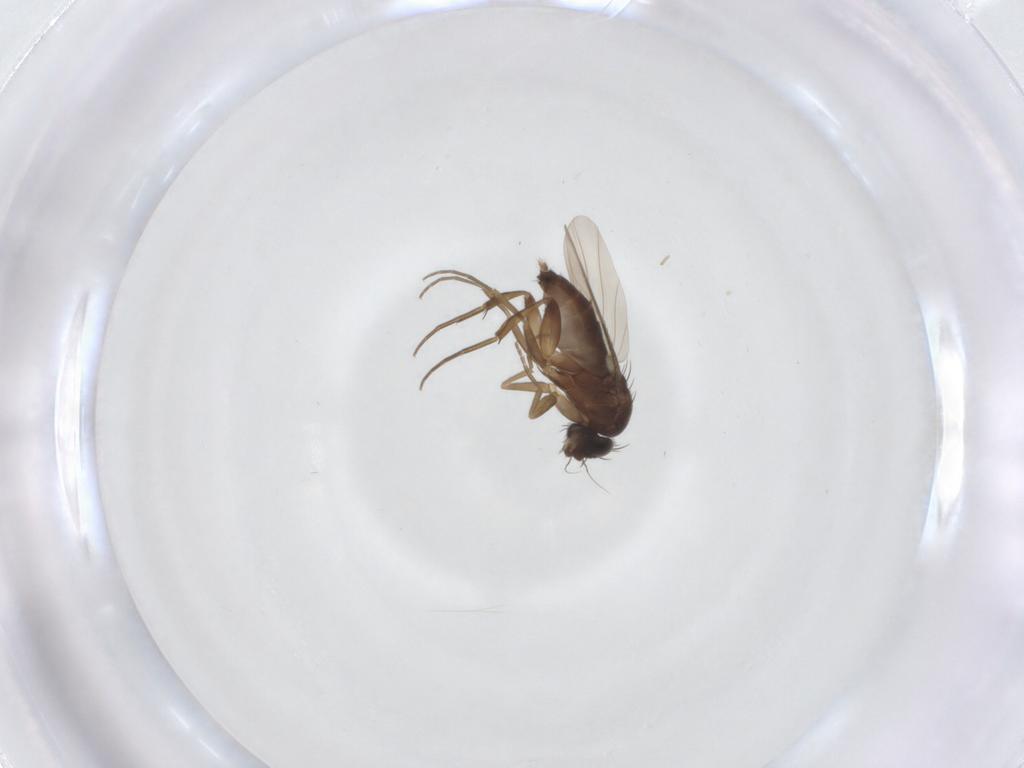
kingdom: Animalia
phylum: Arthropoda
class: Insecta
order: Diptera
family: Phoridae
